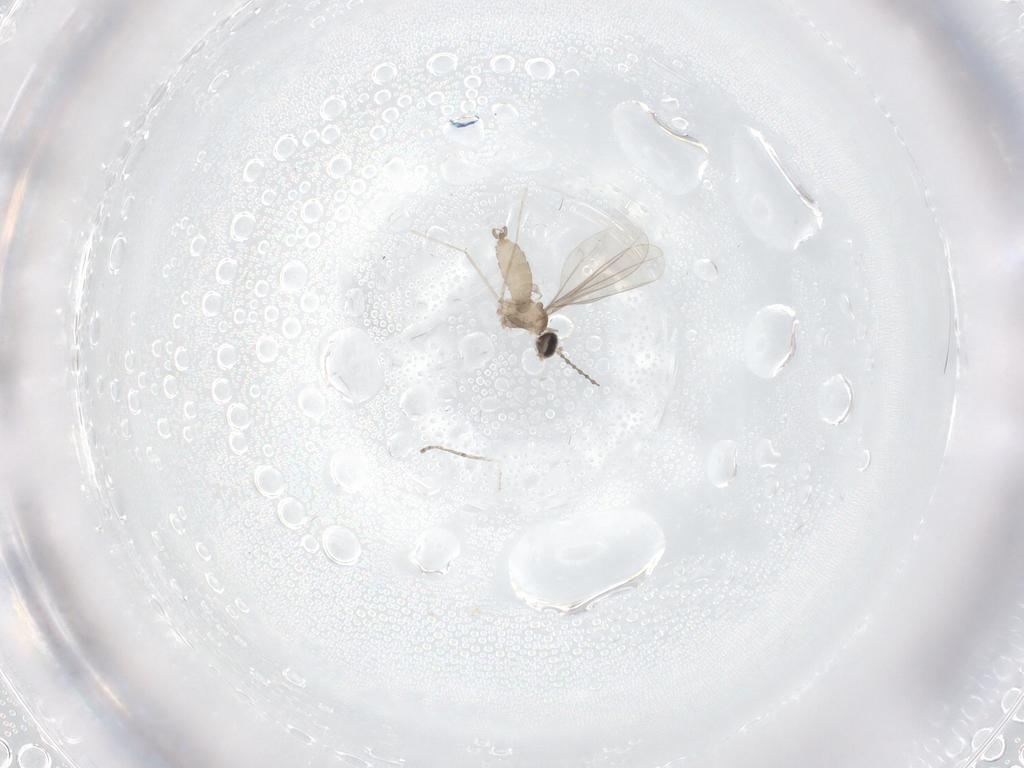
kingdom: Animalia
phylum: Arthropoda
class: Insecta
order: Diptera
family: Cecidomyiidae
